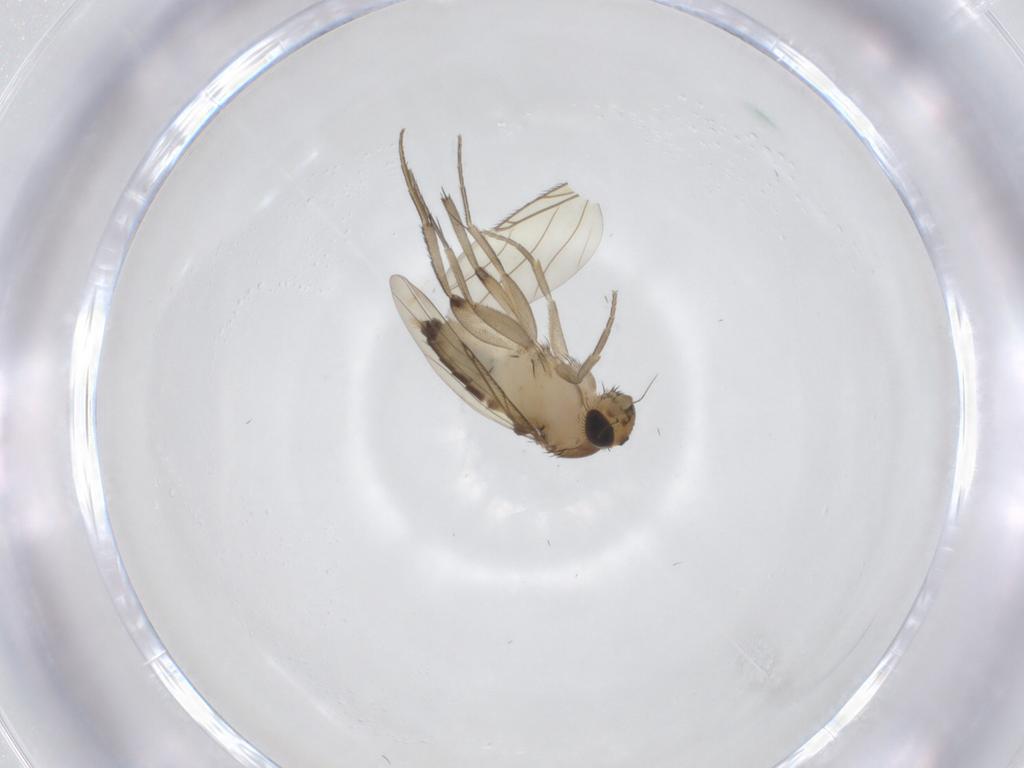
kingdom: Animalia
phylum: Arthropoda
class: Insecta
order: Diptera
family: Phoridae
